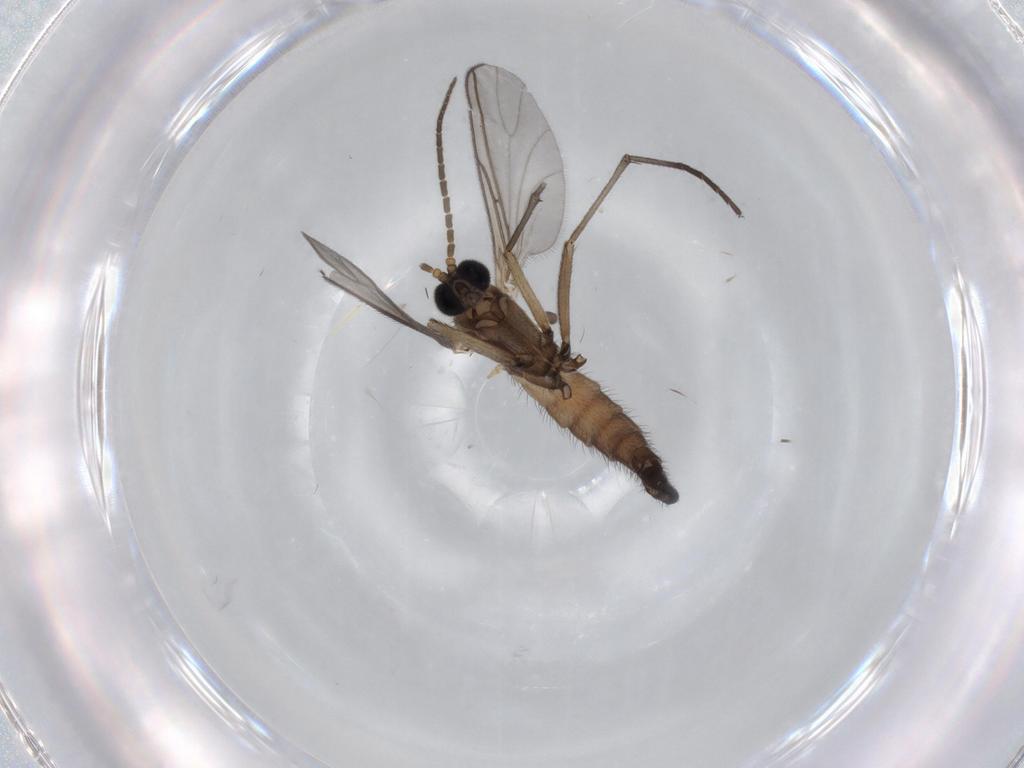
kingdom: Animalia
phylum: Arthropoda
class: Insecta
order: Diptera
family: Sciaridae
